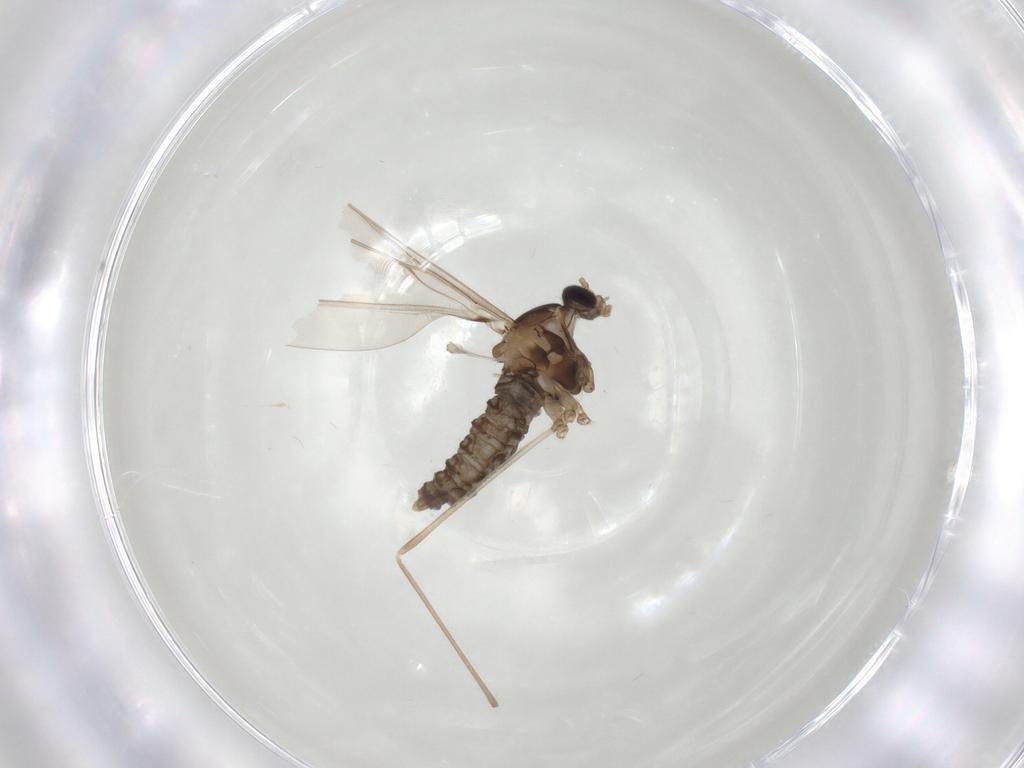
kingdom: Animalia
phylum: Arthropoda
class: Insecta
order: Diptera
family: Cecidomyiidae
